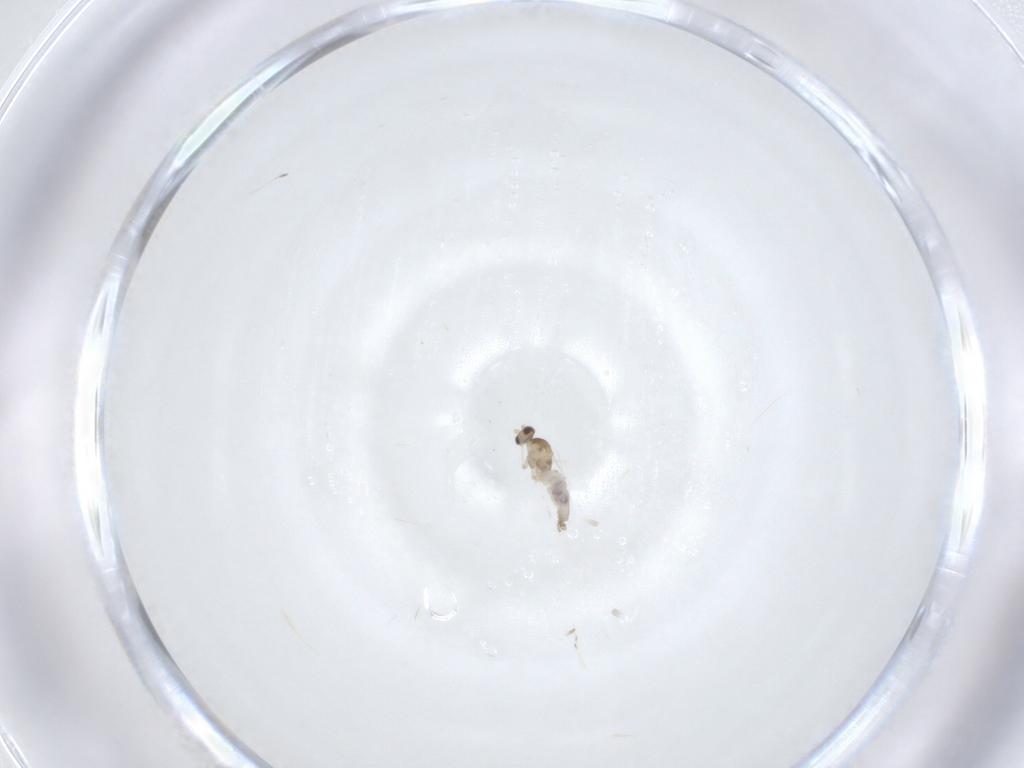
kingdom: Animalia
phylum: Arthropoda
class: Insecta
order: Diptera
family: Cecidomyiidae
